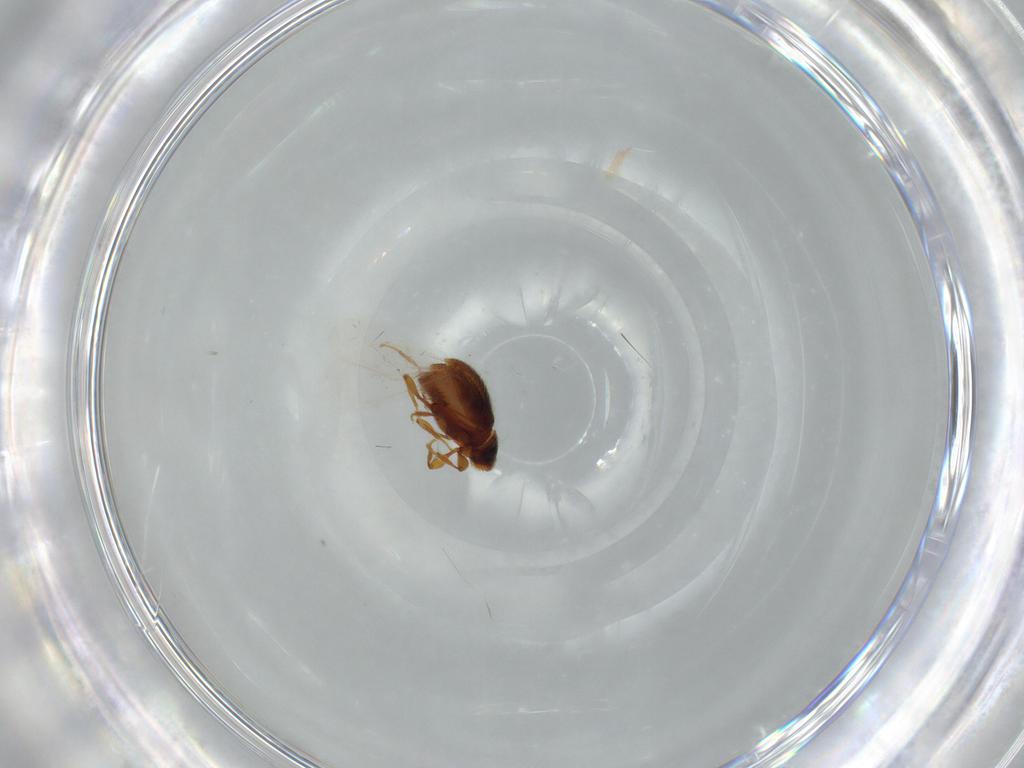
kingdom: Animalia
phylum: Arthropoda
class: Insecta
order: Coleoptera
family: Staphylinidae
